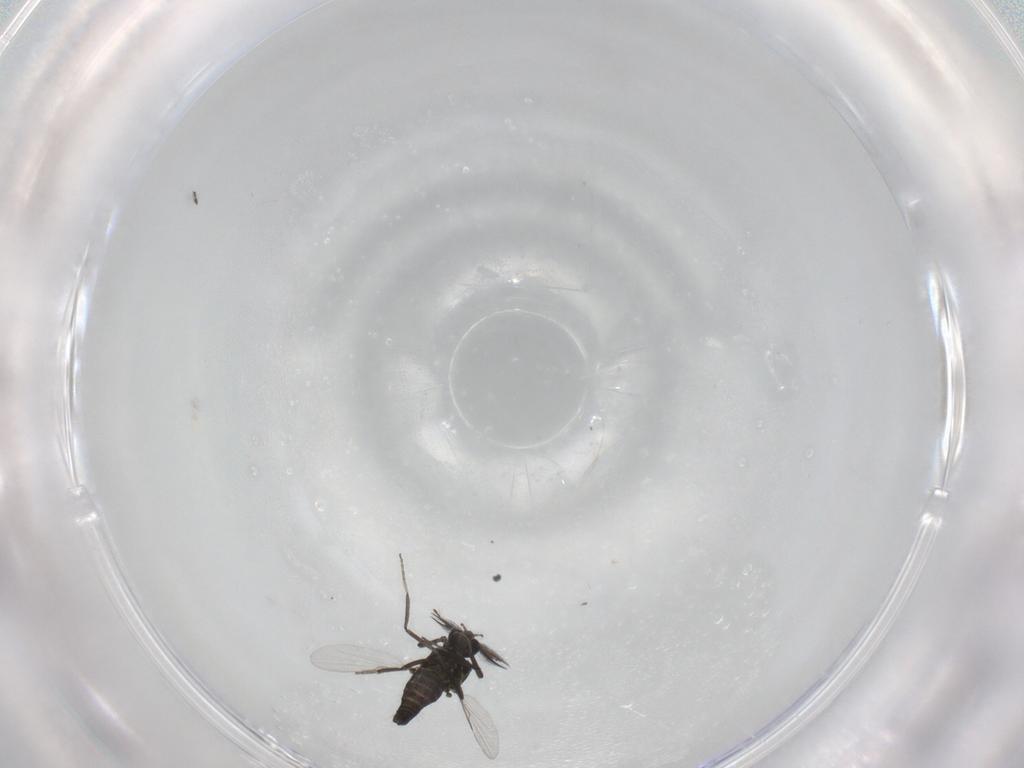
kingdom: Animalia
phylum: Arthropoda
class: Insecta
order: Diptera
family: Ceratopogonidae
